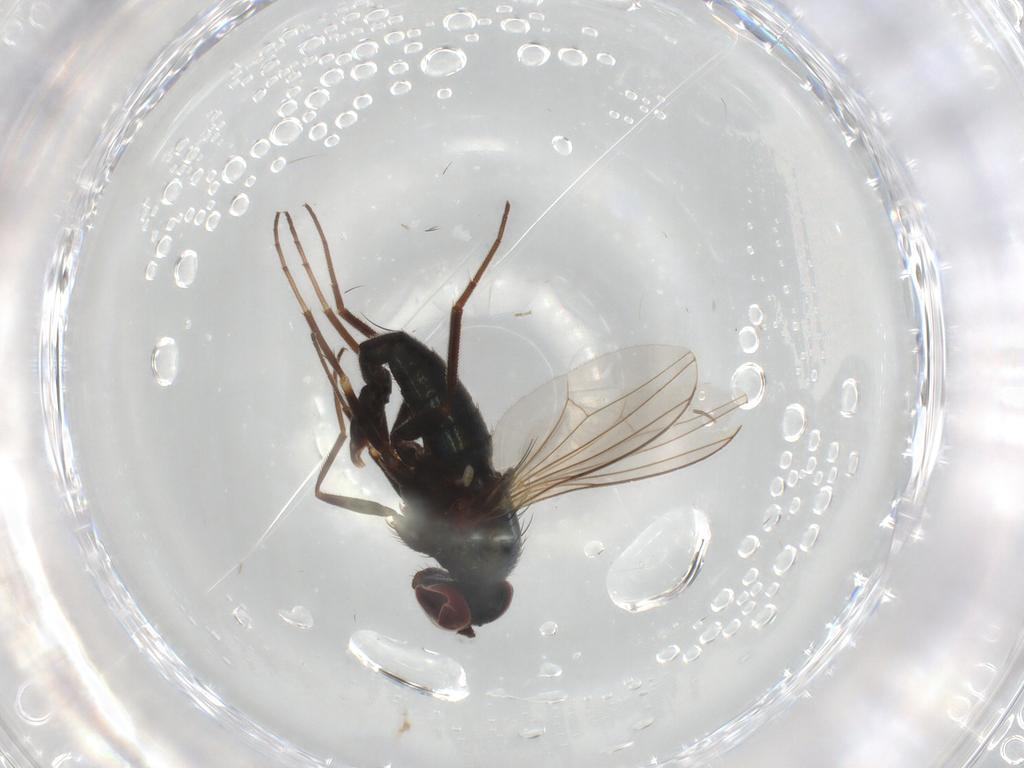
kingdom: Animalia
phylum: Arthropoda
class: Insecta
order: Diptera
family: Dolichopodidae
